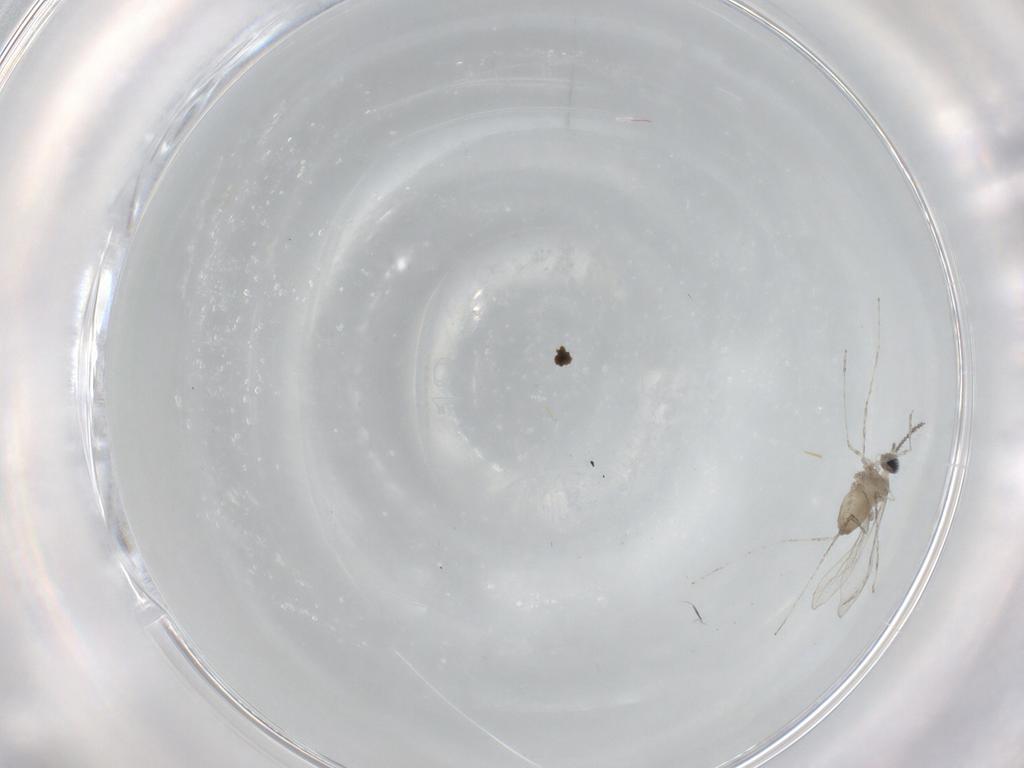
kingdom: Animalia
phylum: Arthropoda
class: Insecta
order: Diptera
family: Cecidomyiidae
